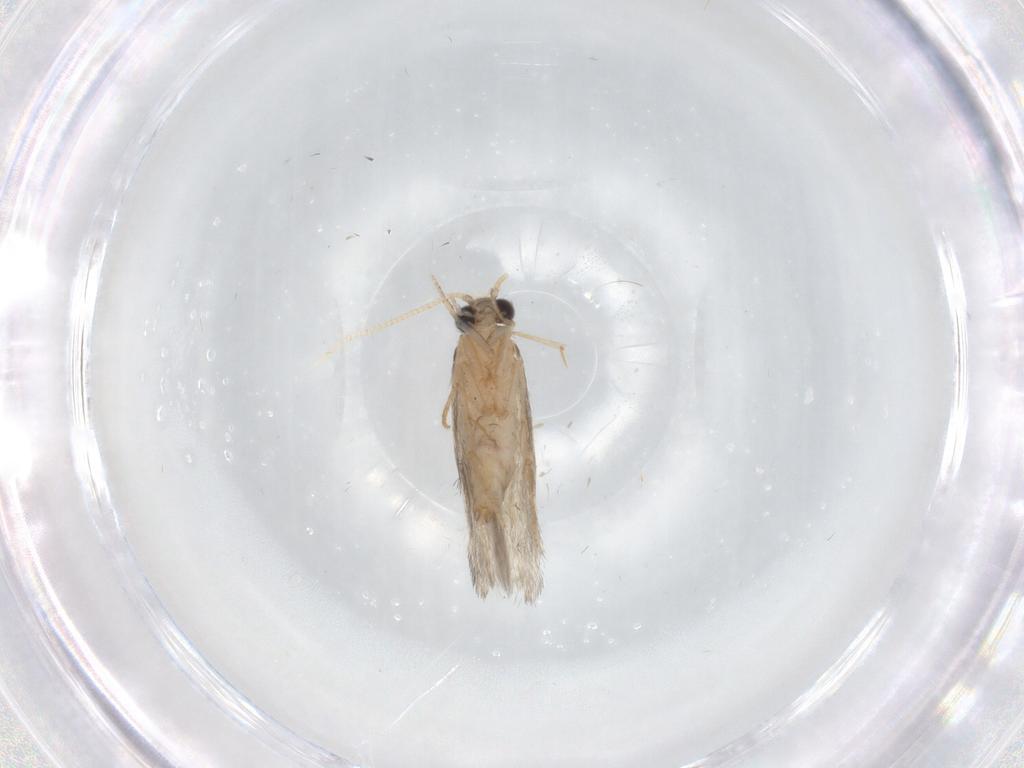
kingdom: Animalia
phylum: Arthropoda
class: Insecta
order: Trichoptera
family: Hydroptilidae
